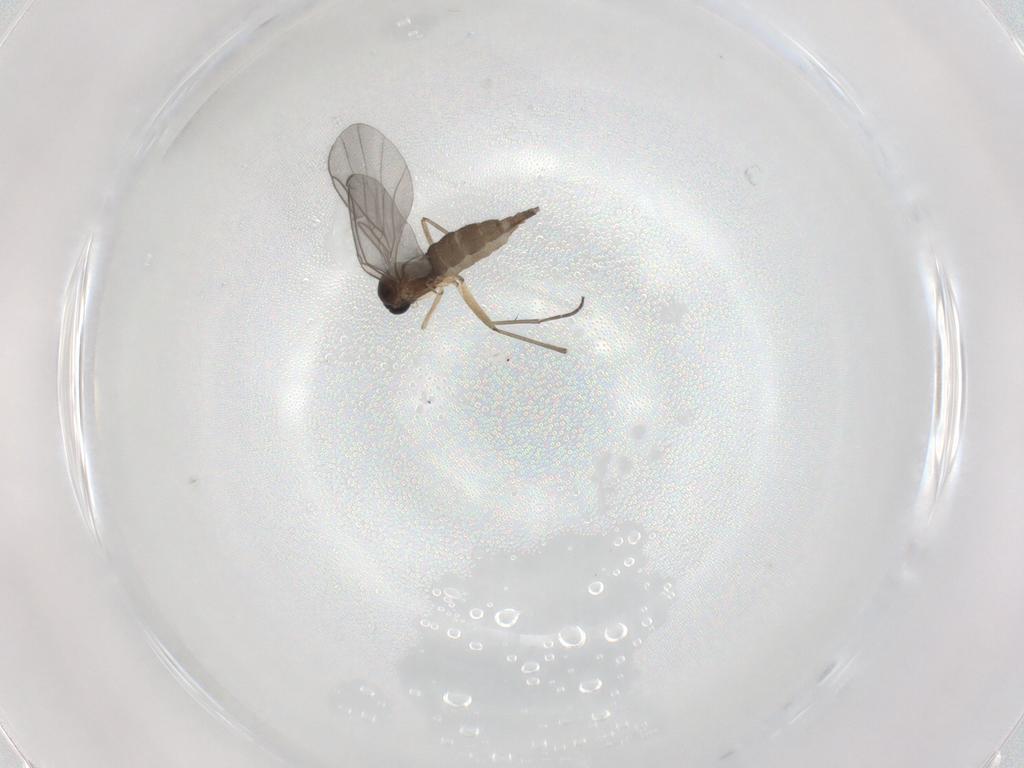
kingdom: Animalia
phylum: Arthropoda
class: Insecta
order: Diptera
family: Sciaridae
